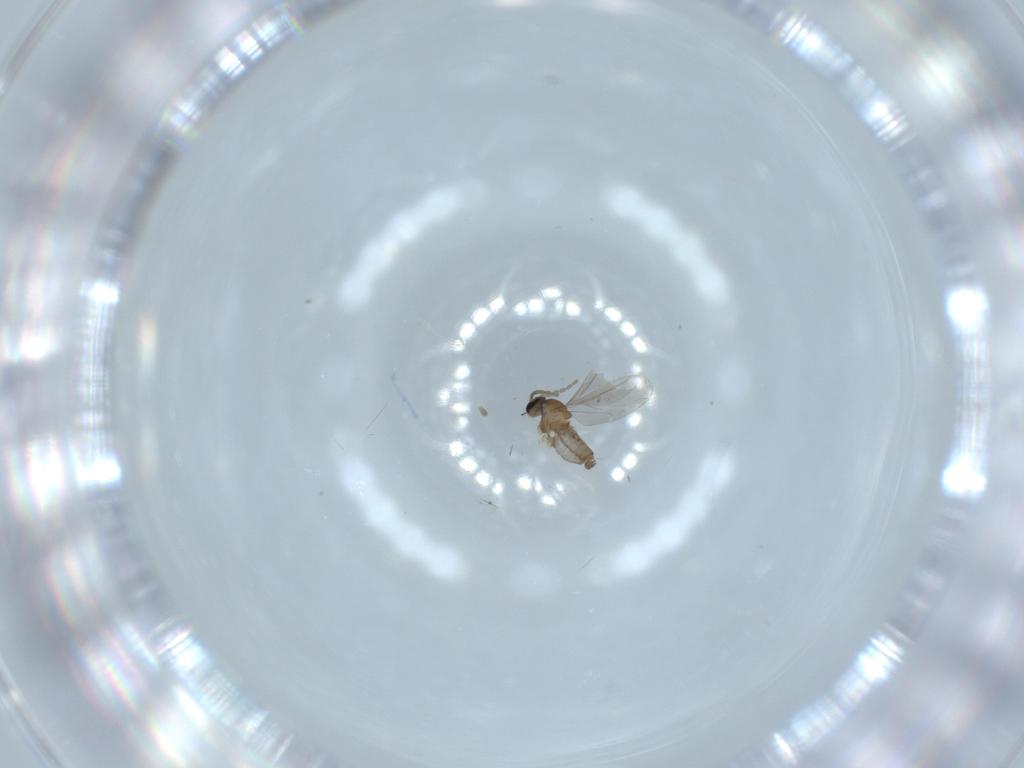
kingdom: Animalia
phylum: Arthropoda
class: Insecta
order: Diptera
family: Cecidomyiidae
